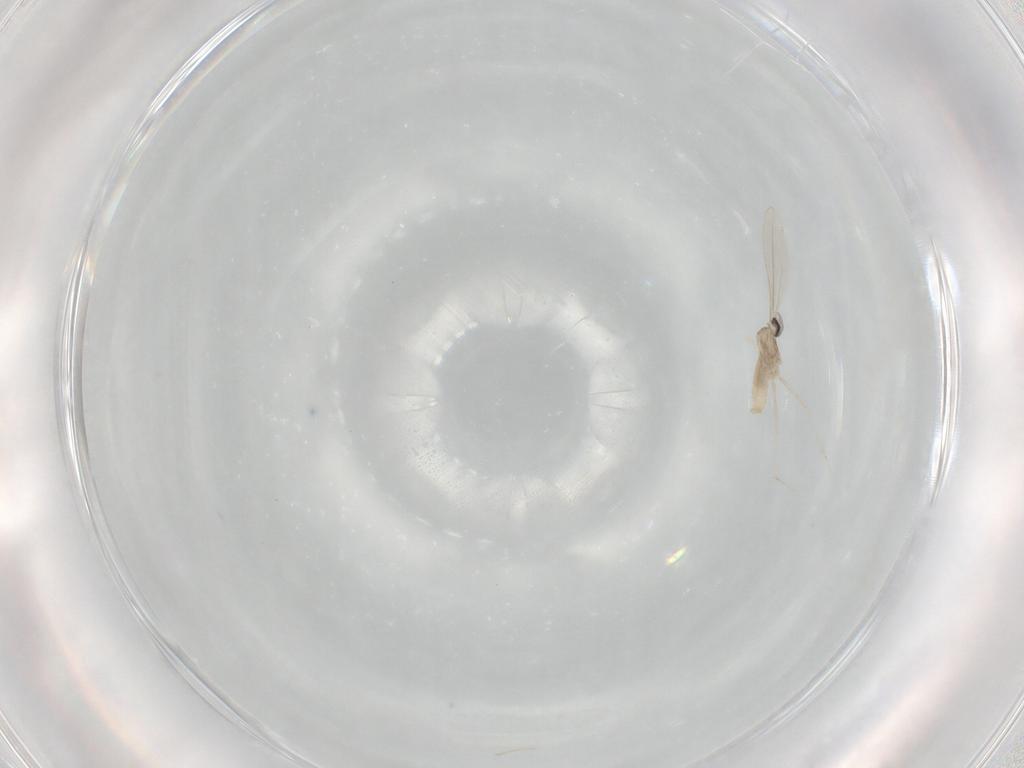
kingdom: Animalia
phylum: Arthropoda
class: Insecta
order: Diptera
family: Cecidomyiidae
